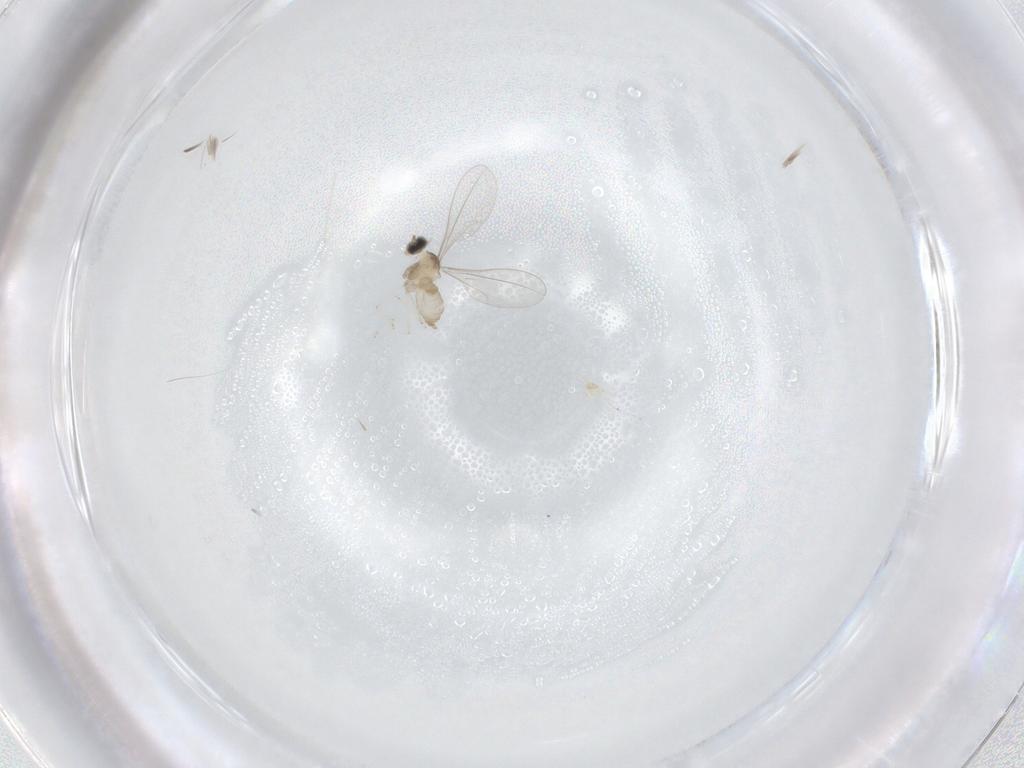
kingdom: Animalia
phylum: Arthropoda
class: Insecta
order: Diptera
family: Cecidomyiidae
